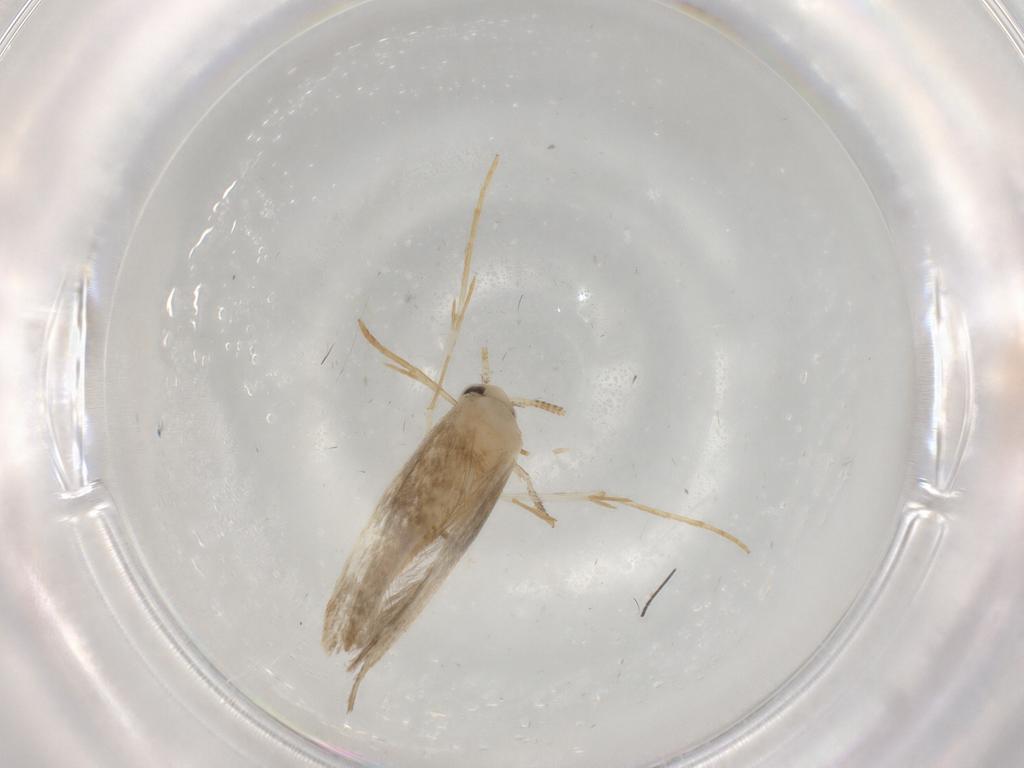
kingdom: Animalia
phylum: Arthropoda
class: Insecta
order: Lepidoptera
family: Tineidae
